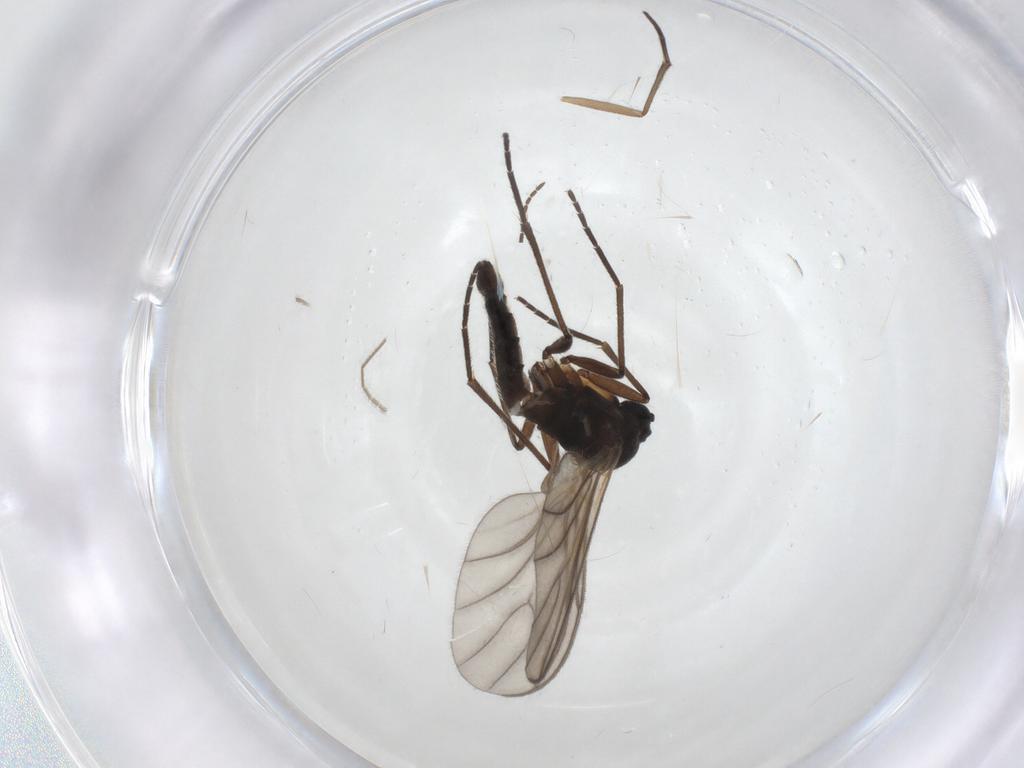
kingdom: Animalia
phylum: Arthropoda
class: Insecta
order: Diptera
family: Sciaridae
